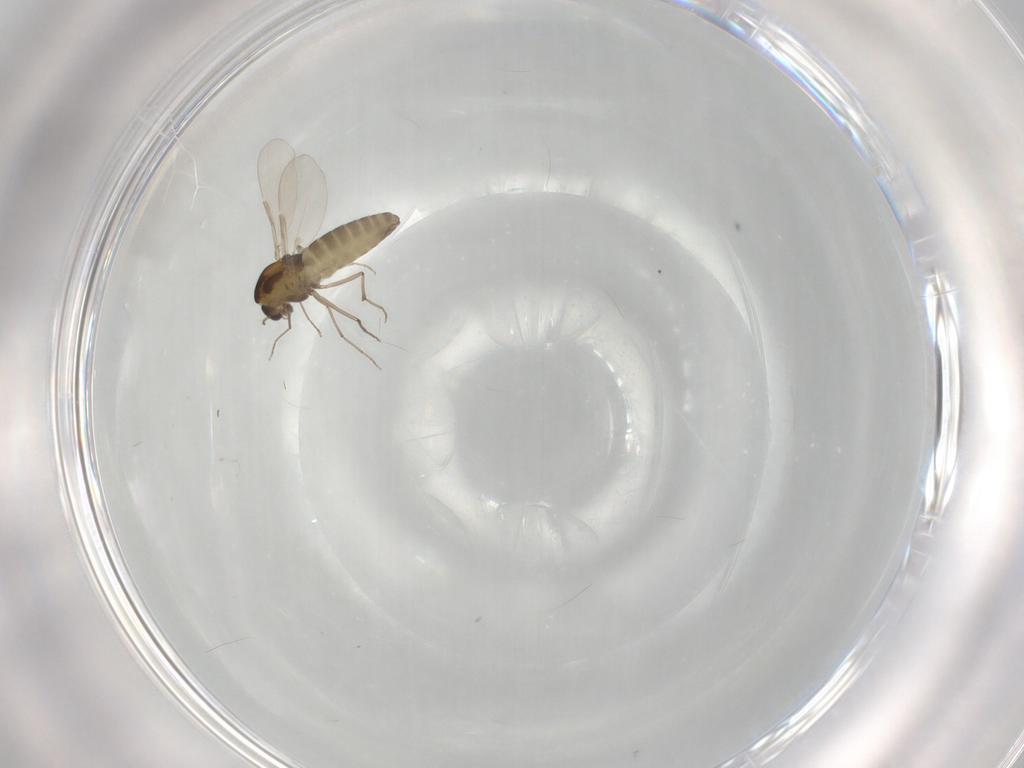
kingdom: Animalia
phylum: Arthropoda
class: Insecta
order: Diptera
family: Chironomidae
